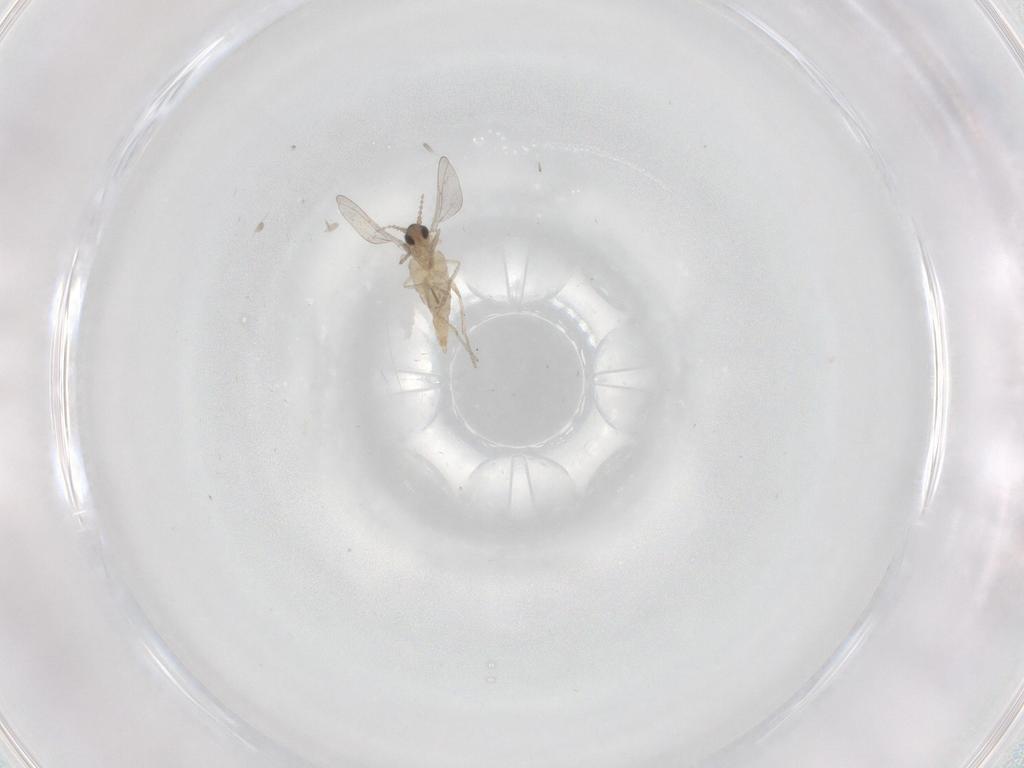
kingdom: Animalia
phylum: Arthropoda
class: Insecta
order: Diptera
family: Cecidomyiidae
